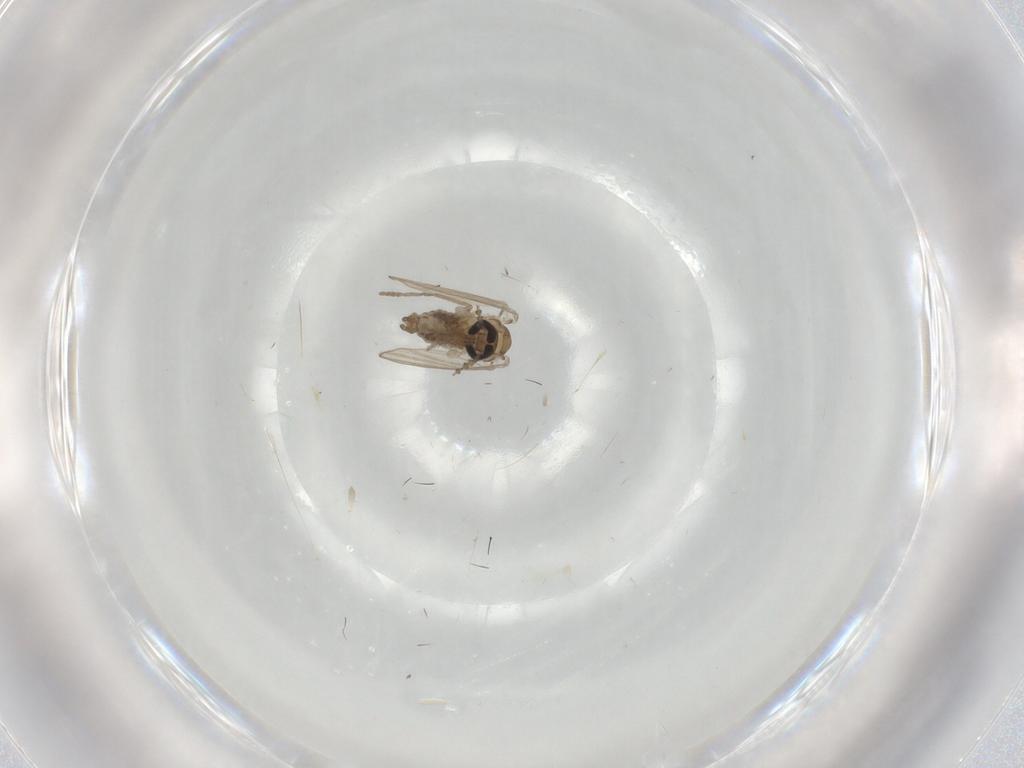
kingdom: Animalia
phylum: Arthropoda
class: Insecta
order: Diptera
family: Psychodidae
